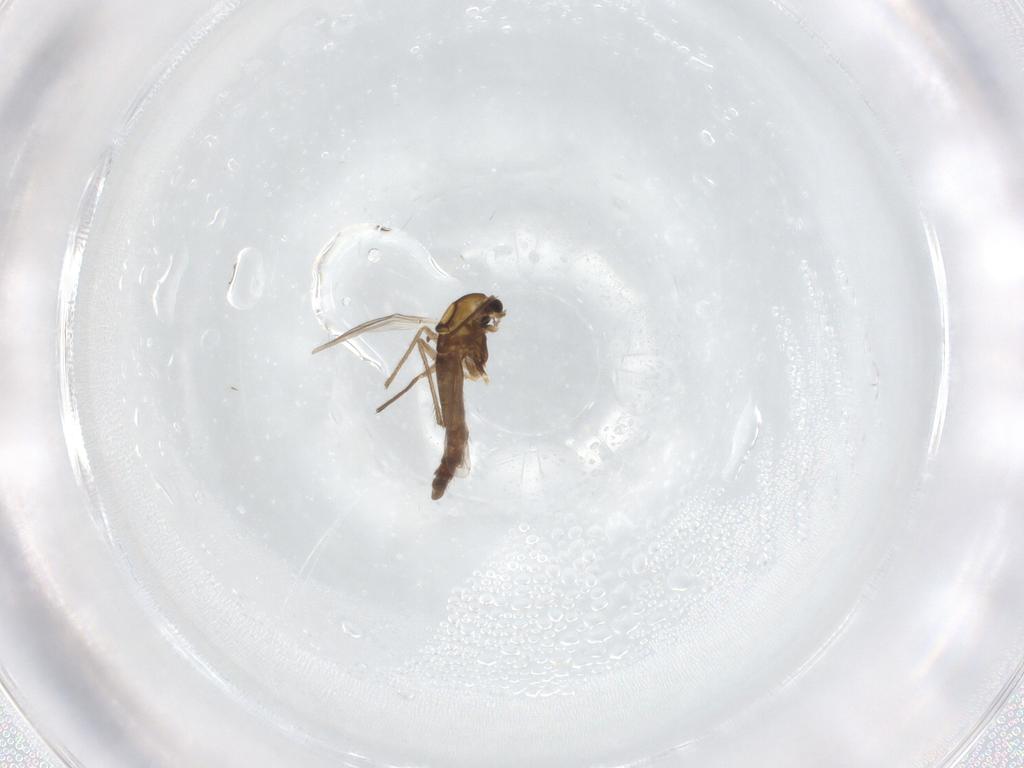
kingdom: Animalia
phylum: Arthropoda
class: Insecta
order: Diptera
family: Chironomidae
